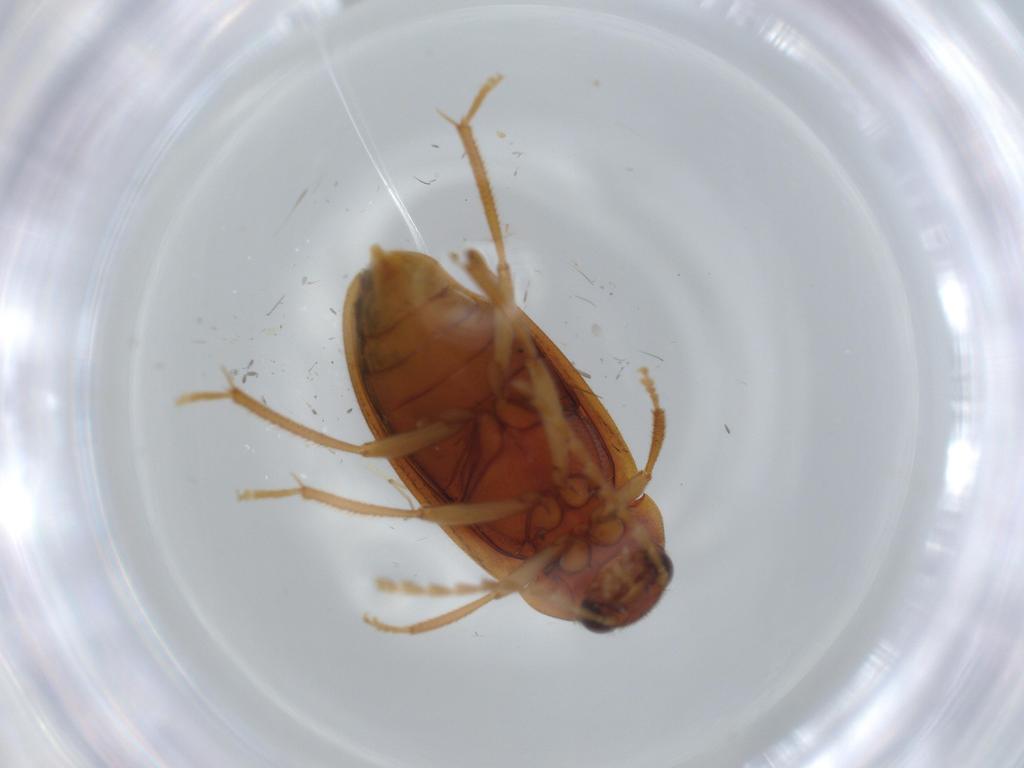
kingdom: Animalia
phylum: Arthropoda
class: Insecta
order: Coleoptera
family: Ptilodactylidae
